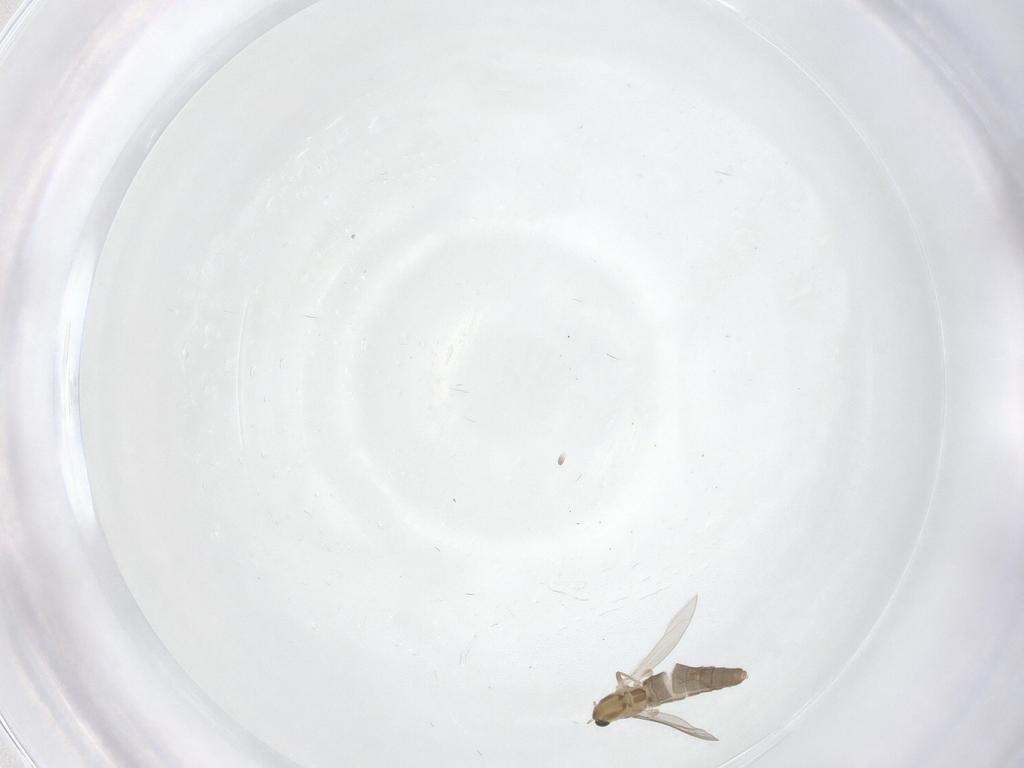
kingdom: Animalia
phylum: Arthropoda
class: Insecta
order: Diptera
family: Chironomidae
